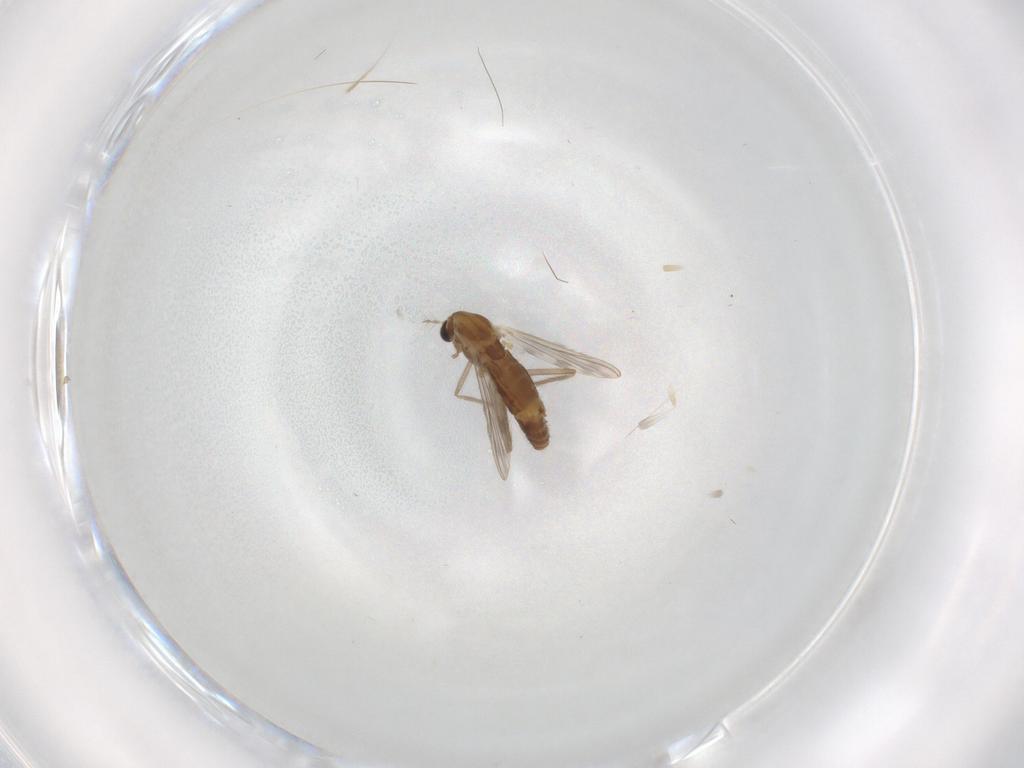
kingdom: Animalia
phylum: Arthropoda
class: Insecta
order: Diptera
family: Chironomidae
